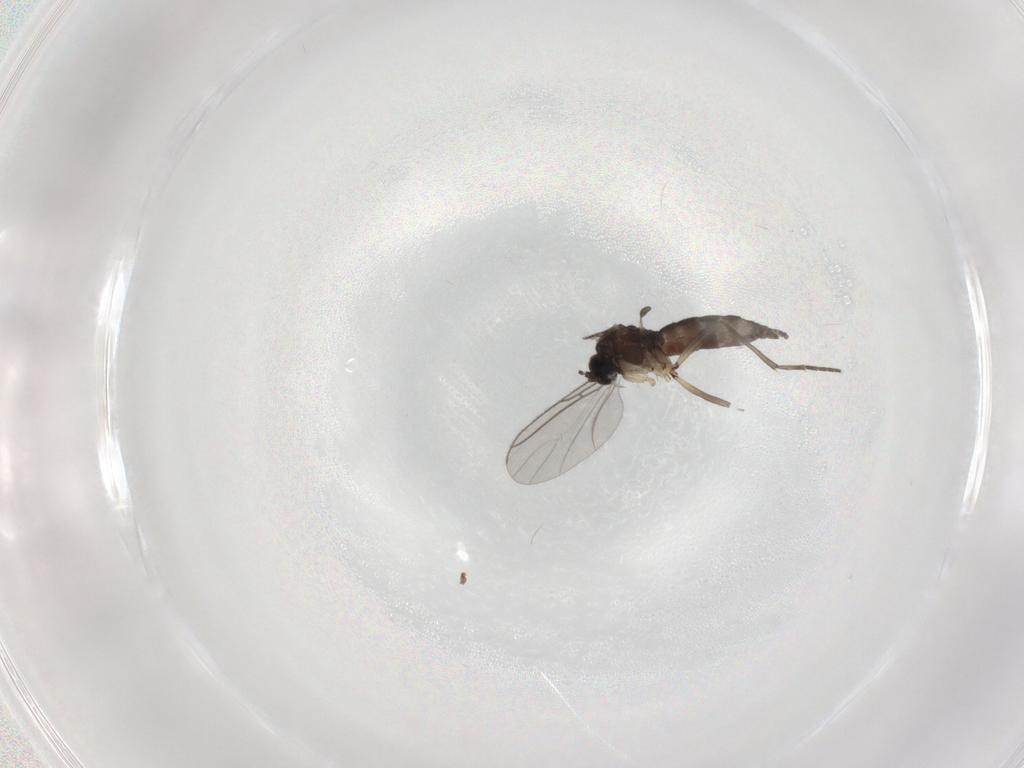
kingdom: Animalia
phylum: Arthropoda
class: Insecta
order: Diptera
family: Sciaridae
